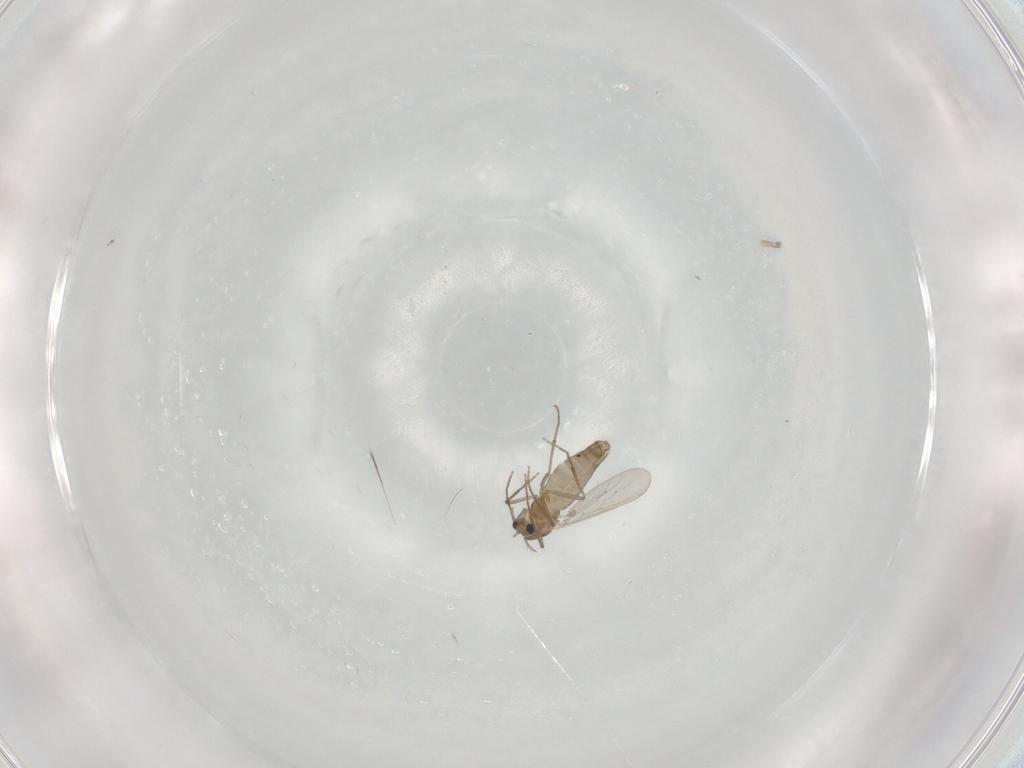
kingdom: Animalia
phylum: Arthropoda
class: Insecta
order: Diptera
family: Chironomidae
